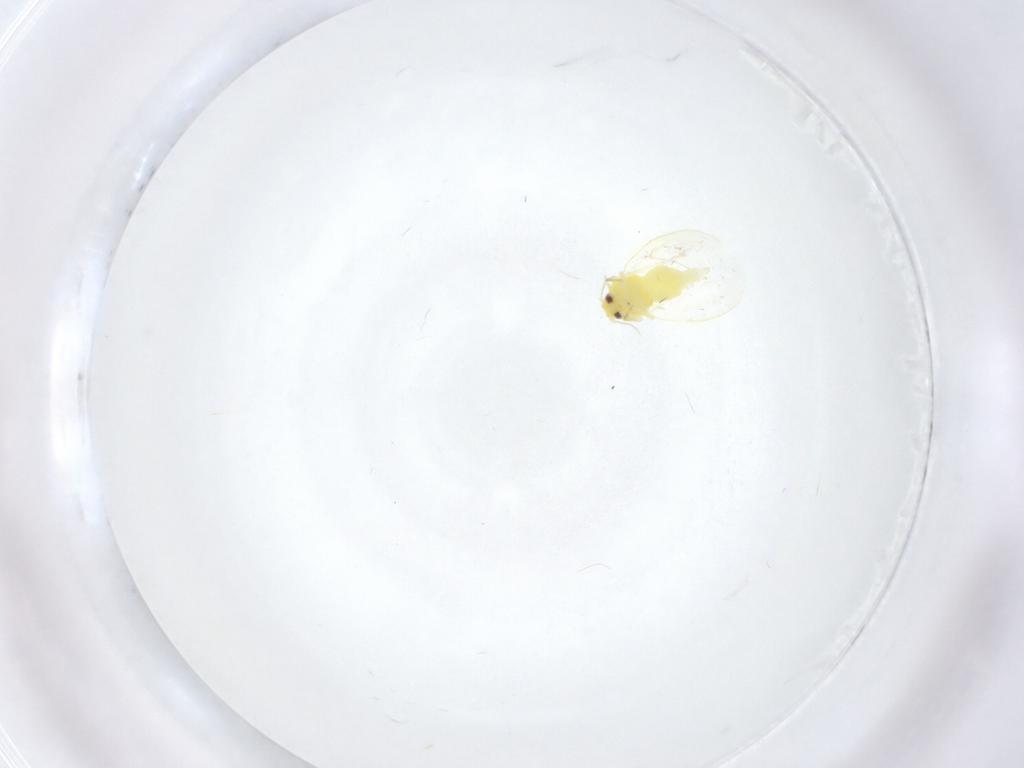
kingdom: Animalia
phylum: Arthropoda
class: Insecta
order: Hemiptera
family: Aleyrodidae
